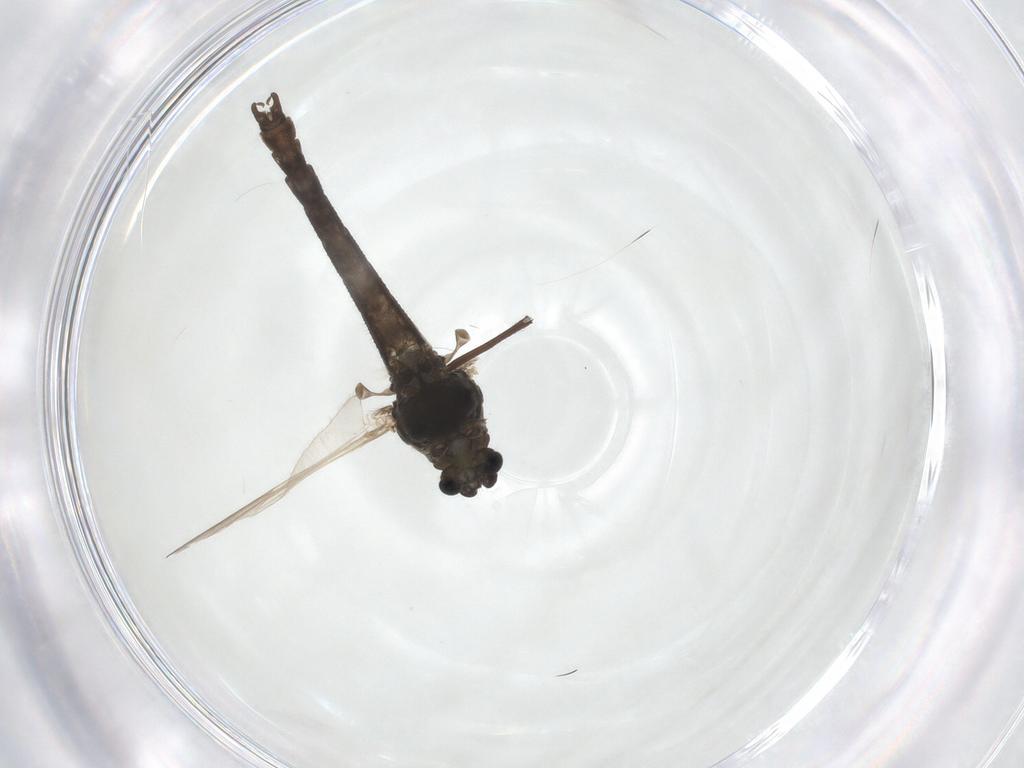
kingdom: Animalia
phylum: Arthropoda
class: Insecta
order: Diptera
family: Chironomidae
